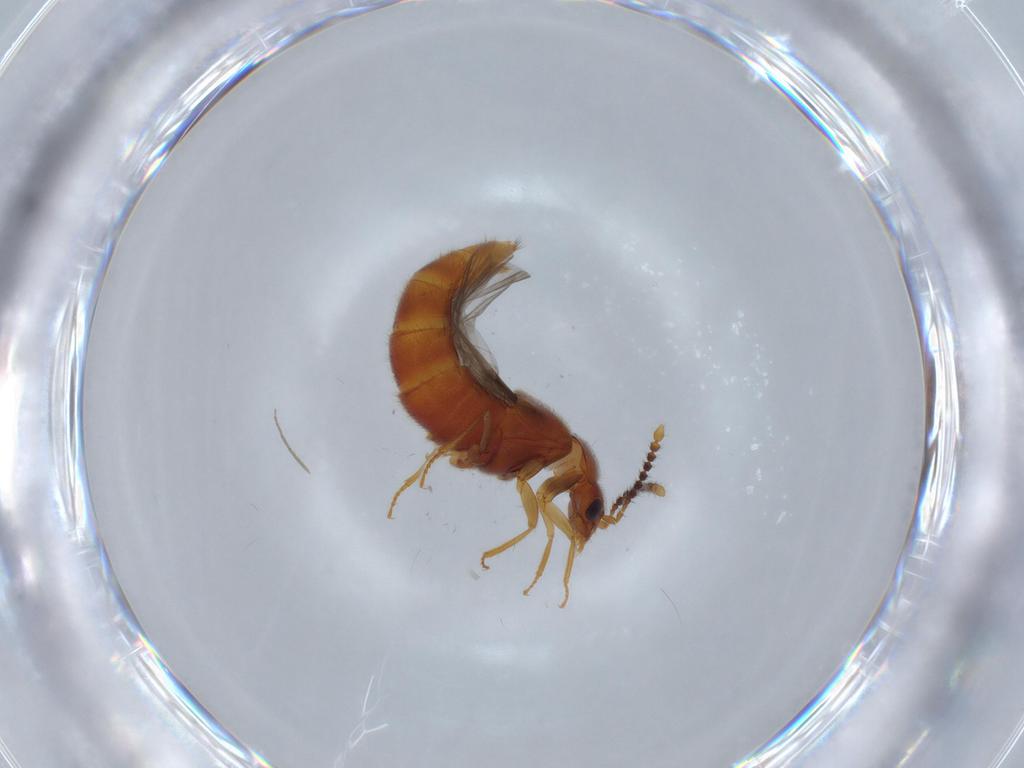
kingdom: Animalia
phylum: Arthropoda
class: Insecta
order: Coleoptera
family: Staphylinidae
